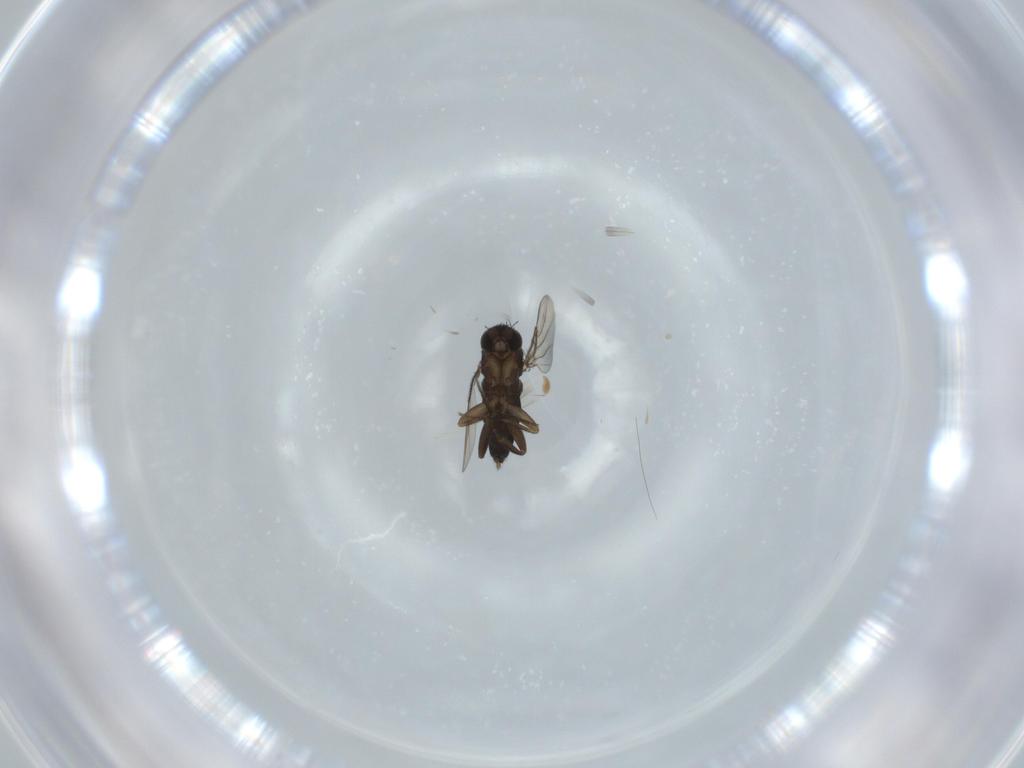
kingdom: Animalia
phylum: Arthropoda
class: Insecta
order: Diptera
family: Phoridae
